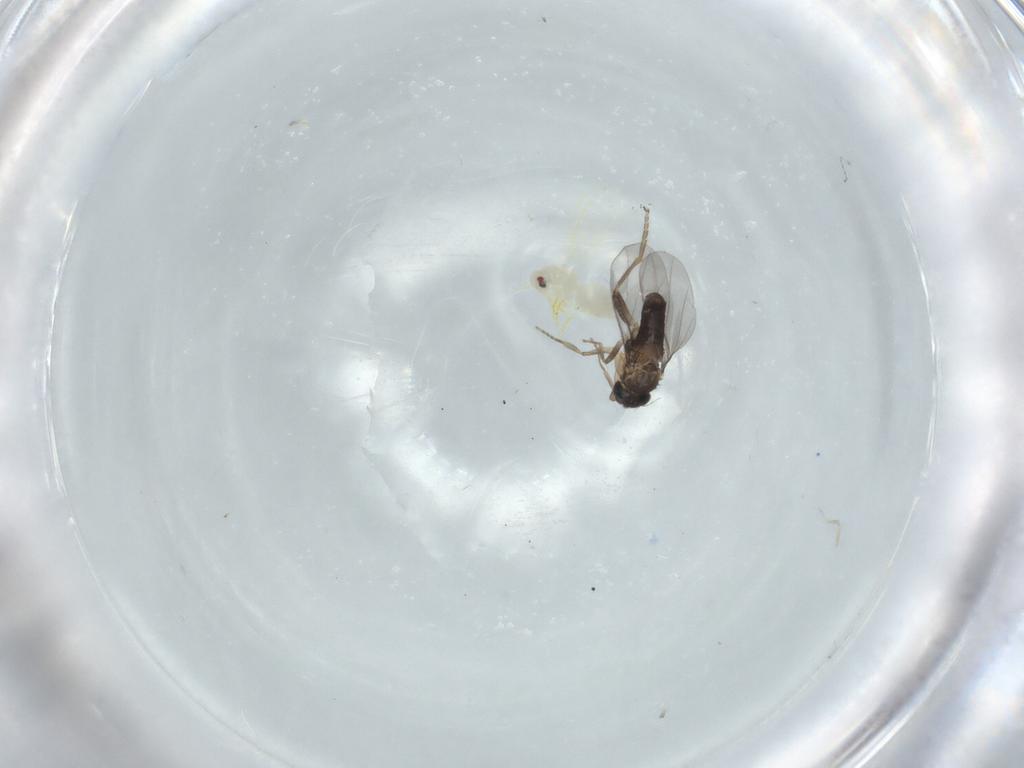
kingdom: Animalia
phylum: Arthropoda
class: Insecta
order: Hemiptera
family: Aleyrodidae
